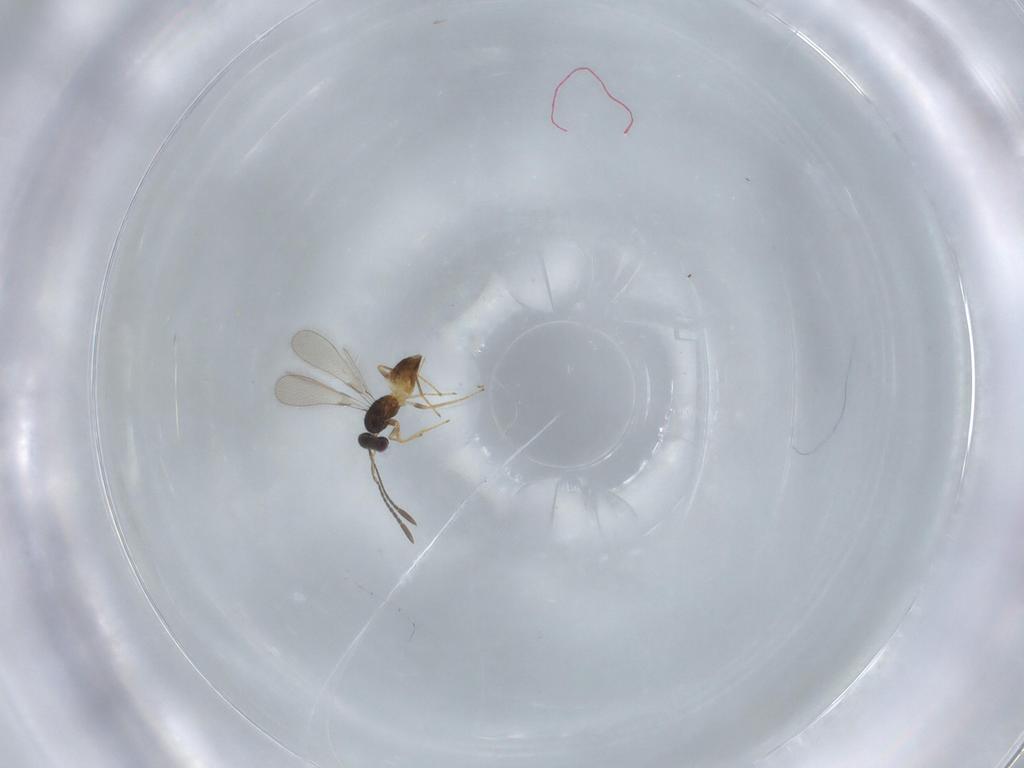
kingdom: Animalia
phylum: Arthropoda
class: Insecta
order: Hymenoptera
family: Mymaridae
